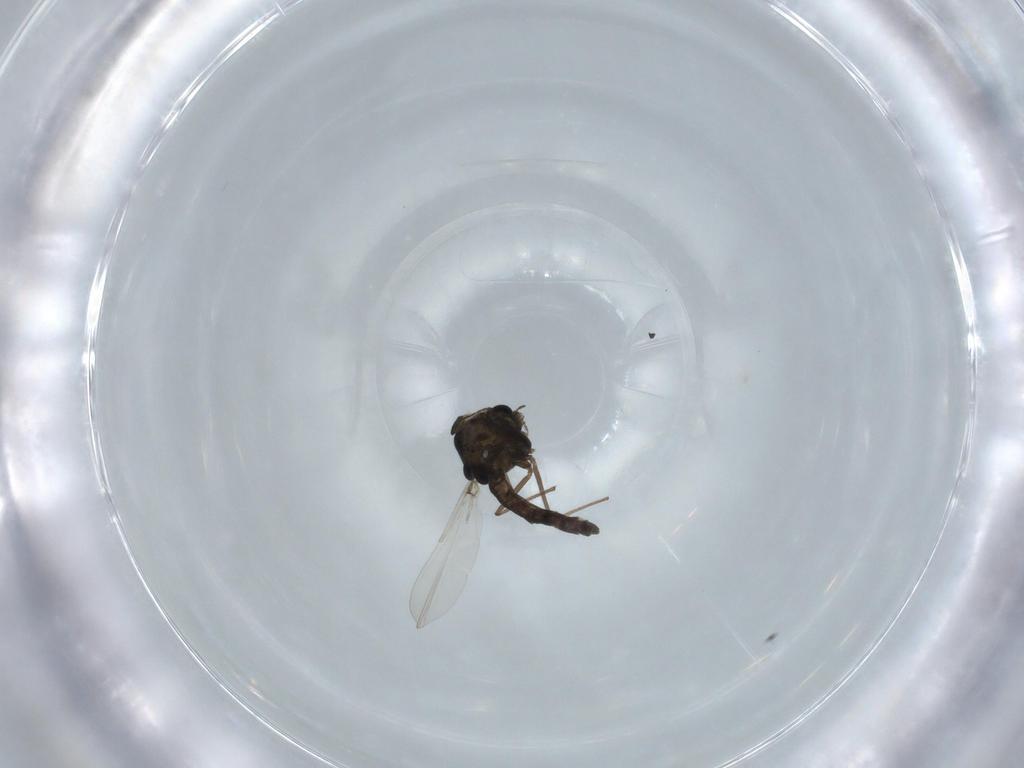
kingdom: Animalia
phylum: Arthropoda
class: Insecta
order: Diptera
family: Chironomidae
